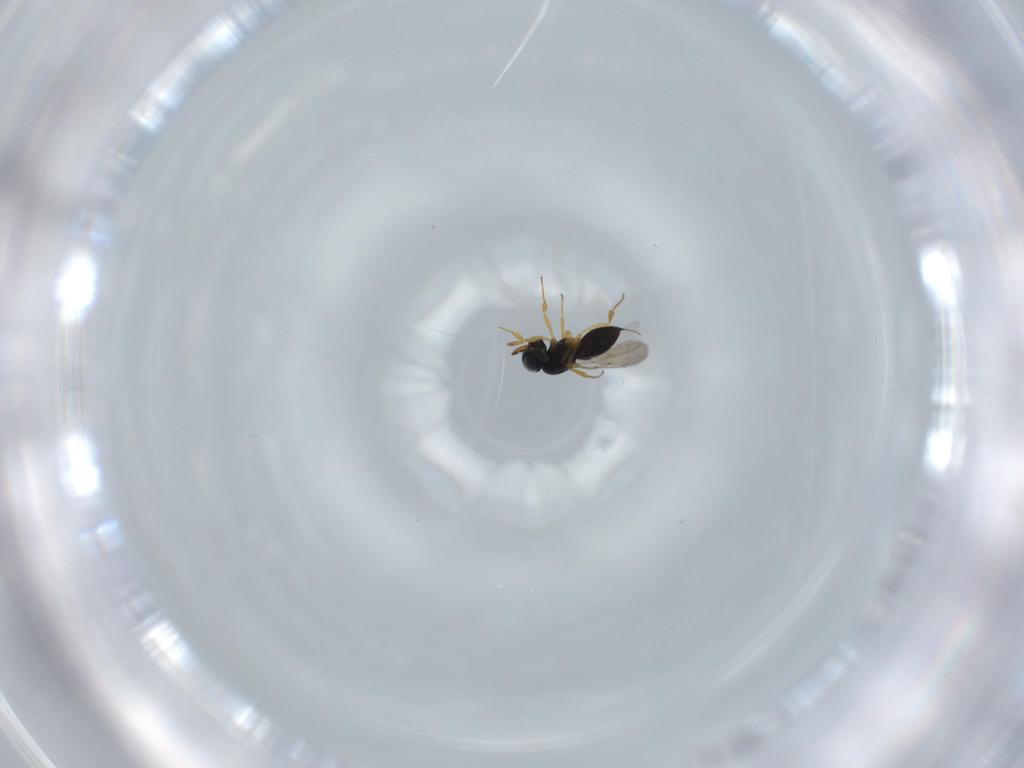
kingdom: Animalia
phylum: Arthropoda
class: Insecta
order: Hymenoptera
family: Scelionidae
